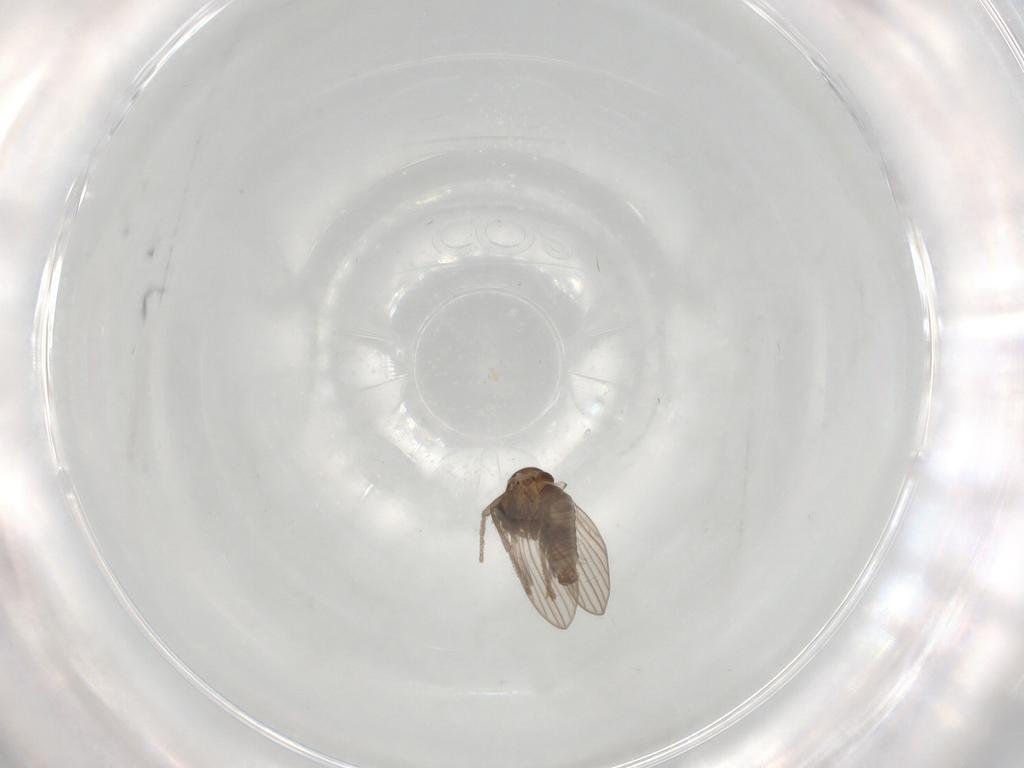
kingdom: Animalia
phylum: Arthropoda
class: Insecta
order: Diptera
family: Psychodidae
